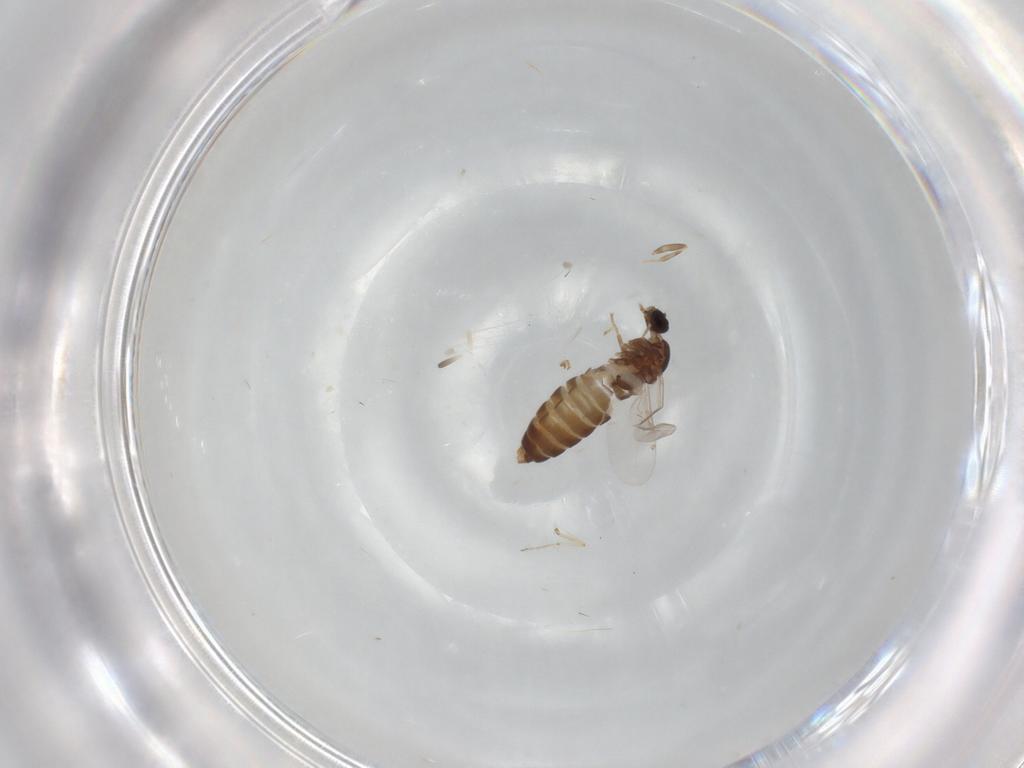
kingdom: Animalia
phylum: Arthropoda
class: Insecta
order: Diptera
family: Scatopsidae
